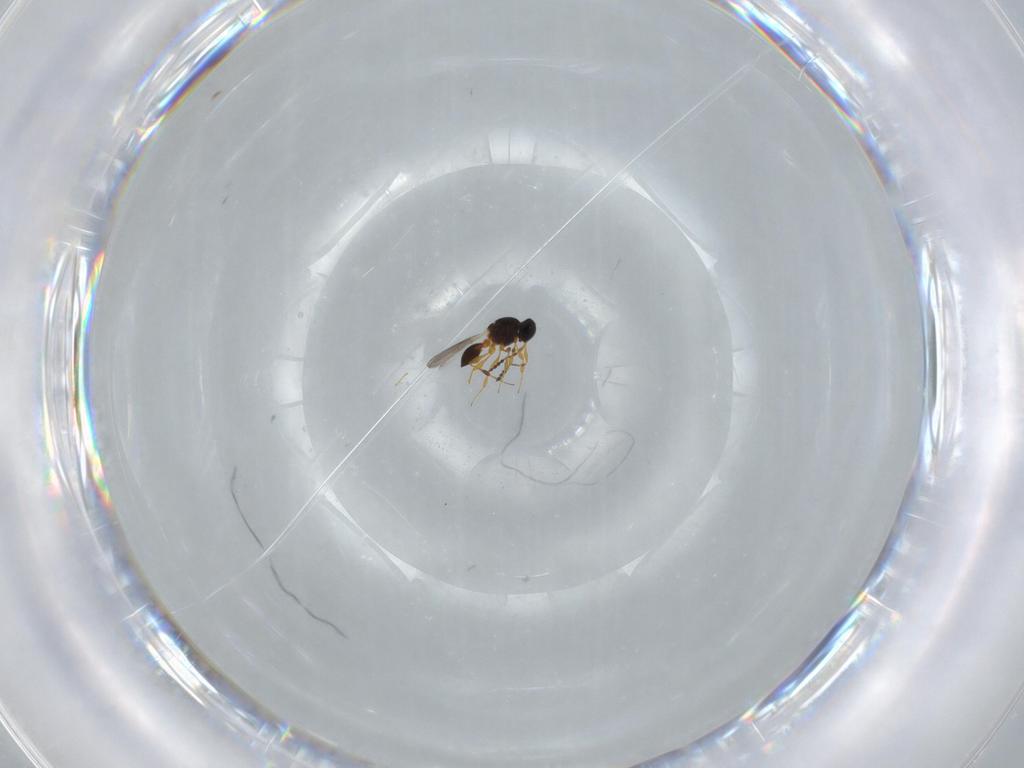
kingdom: Animalia
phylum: Arthropoda
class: Insecta
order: Hymenoptera
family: Platygastridae
